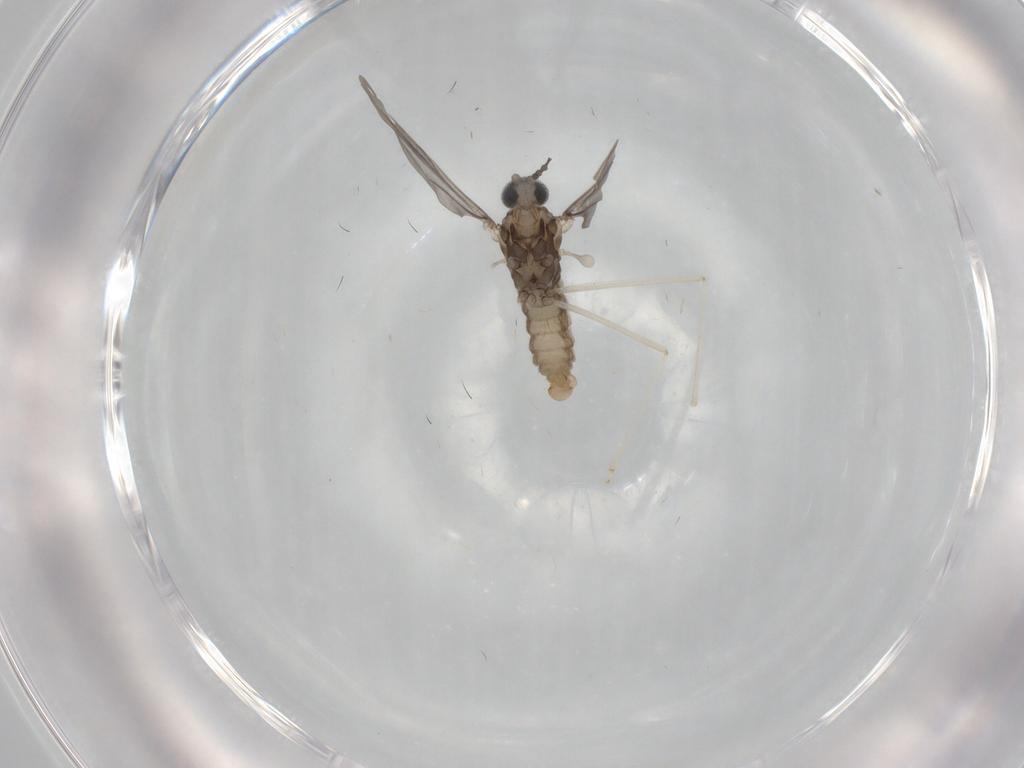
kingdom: Animalia
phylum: Arthropoda
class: Insecta
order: Diptera
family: Cecidomyiidae
